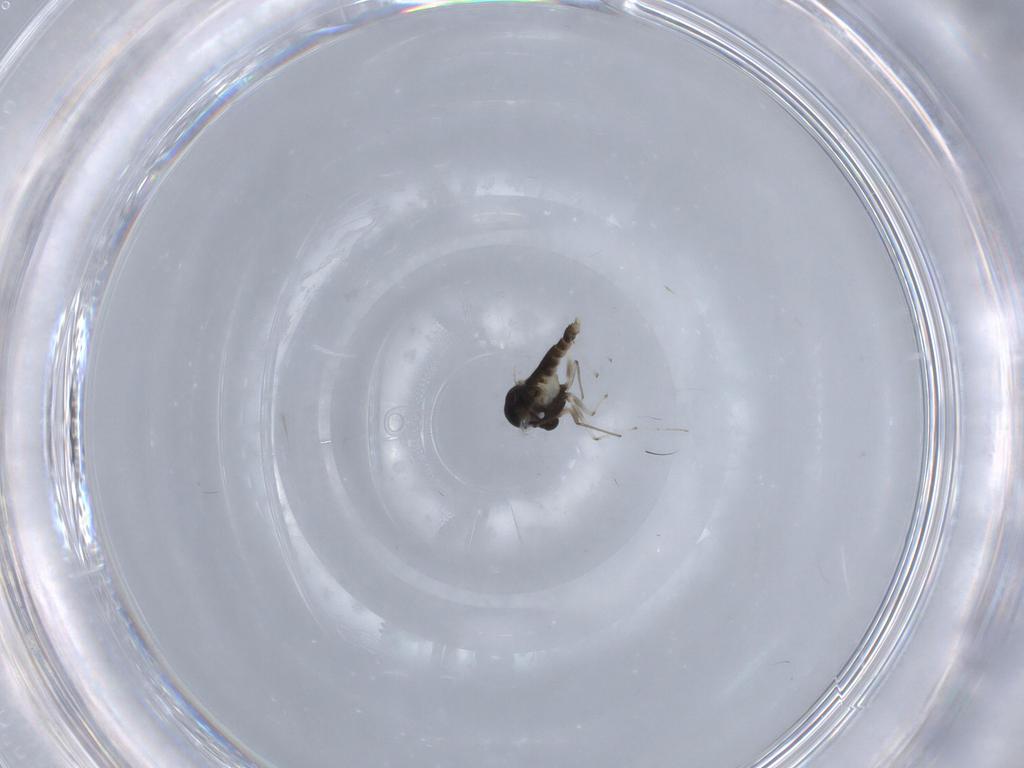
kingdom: Animalia
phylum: Arthropoda
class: Insecta
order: Diptera
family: Chironomidae
